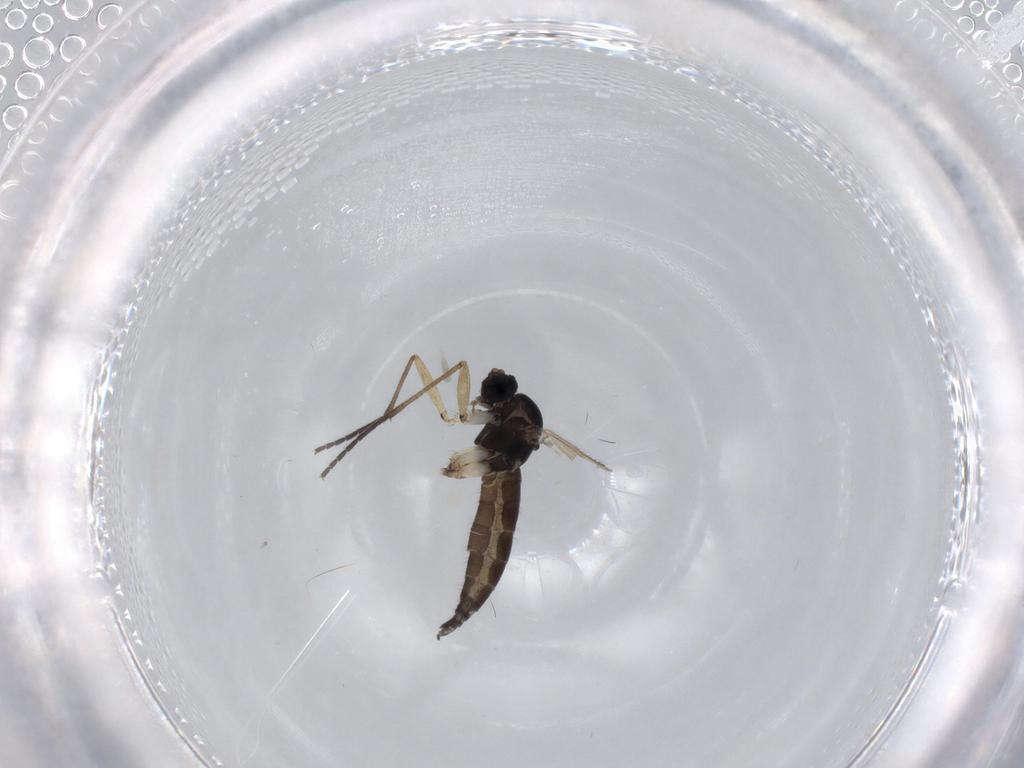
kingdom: Animalia
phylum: Arthropoda
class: Insecta
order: Diptera
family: Sciaridae
